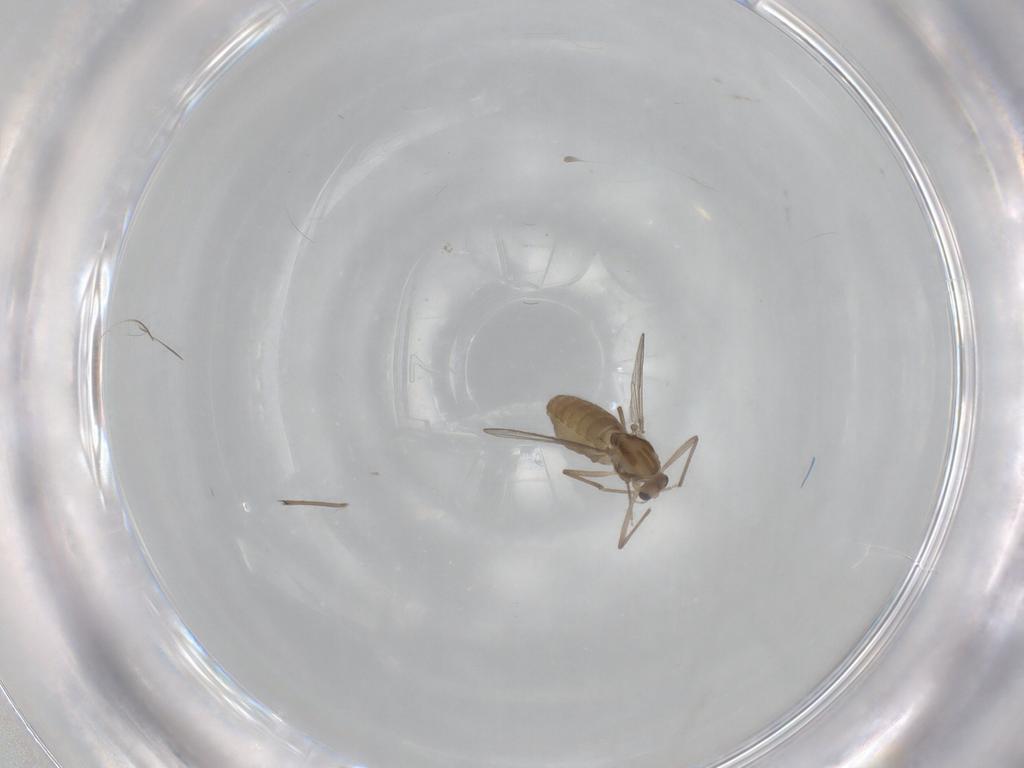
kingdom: Animalia
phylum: Arthropoda
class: Insecta
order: Diptera
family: Chironomidae
